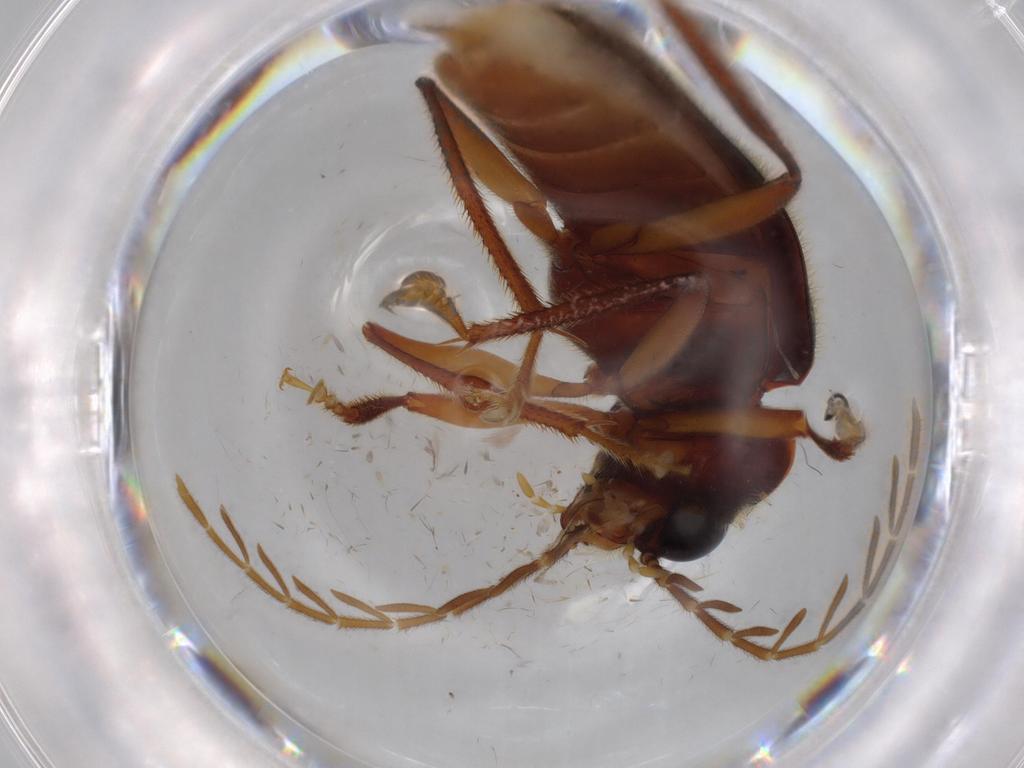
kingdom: Animalia
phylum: Arthropoda
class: Insecta
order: Coleoptera
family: Ptilodactylidae
